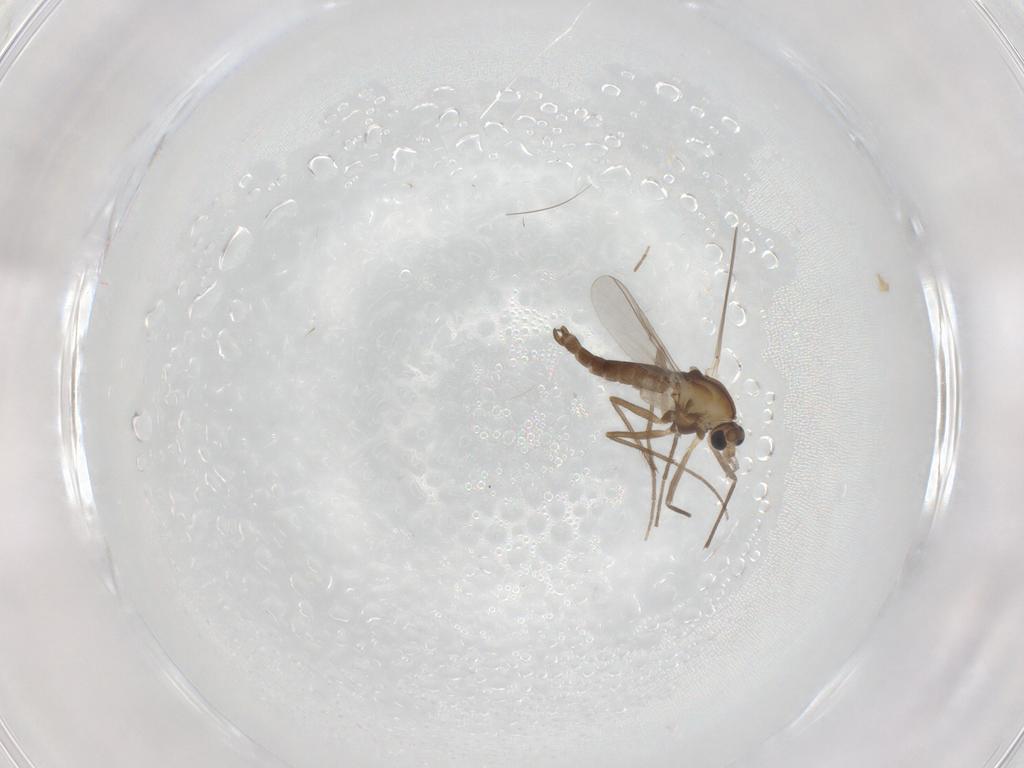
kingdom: Animalia
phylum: Arthropoda
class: Insecta
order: Diptera
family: Chironomidae
